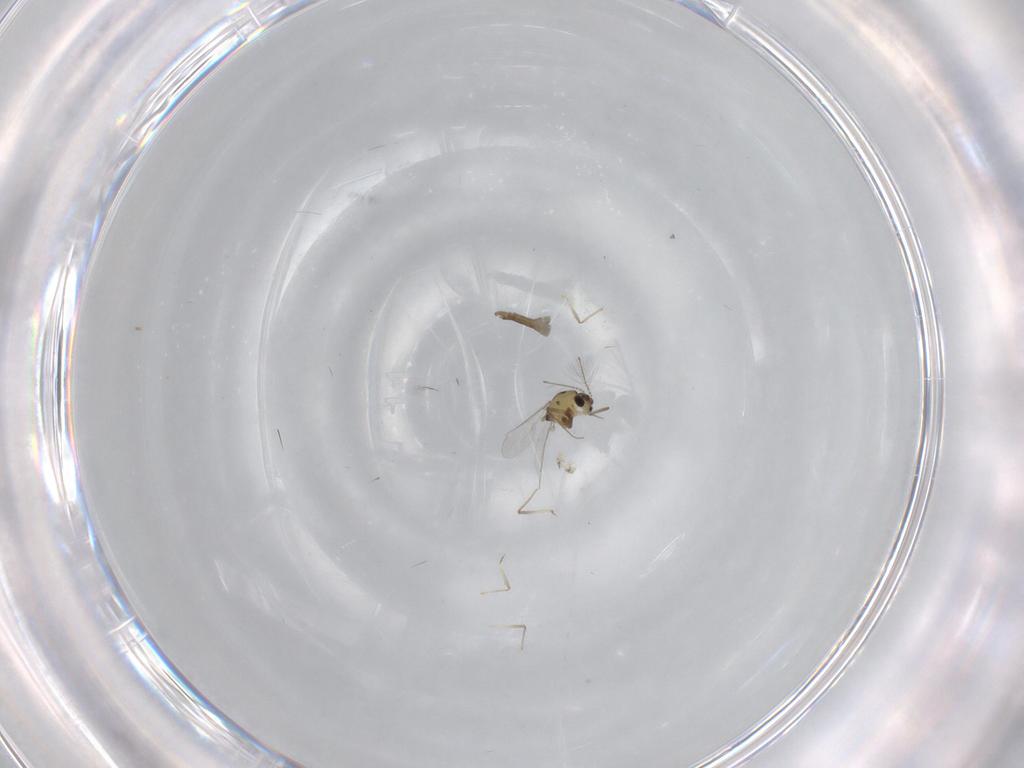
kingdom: Animalia
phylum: Arthropoda
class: Insecta
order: Diptera
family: Chironomidae
